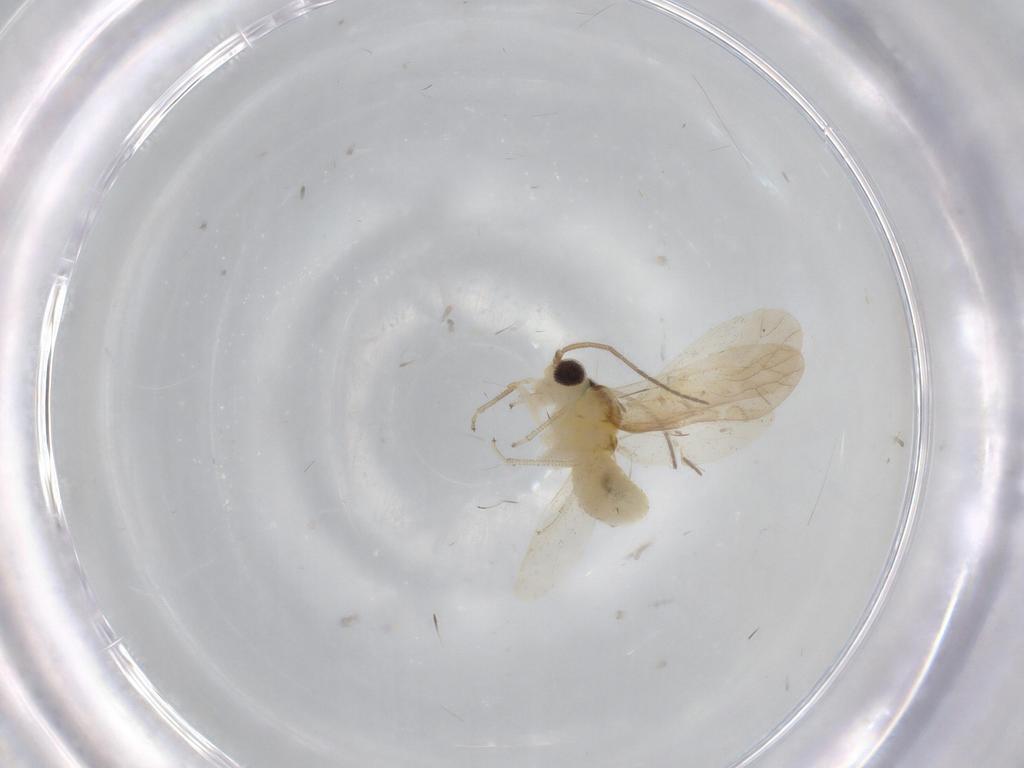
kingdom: Animalia
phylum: Arthropoda
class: Insecta
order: Psocodea
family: Caeciliusidae
